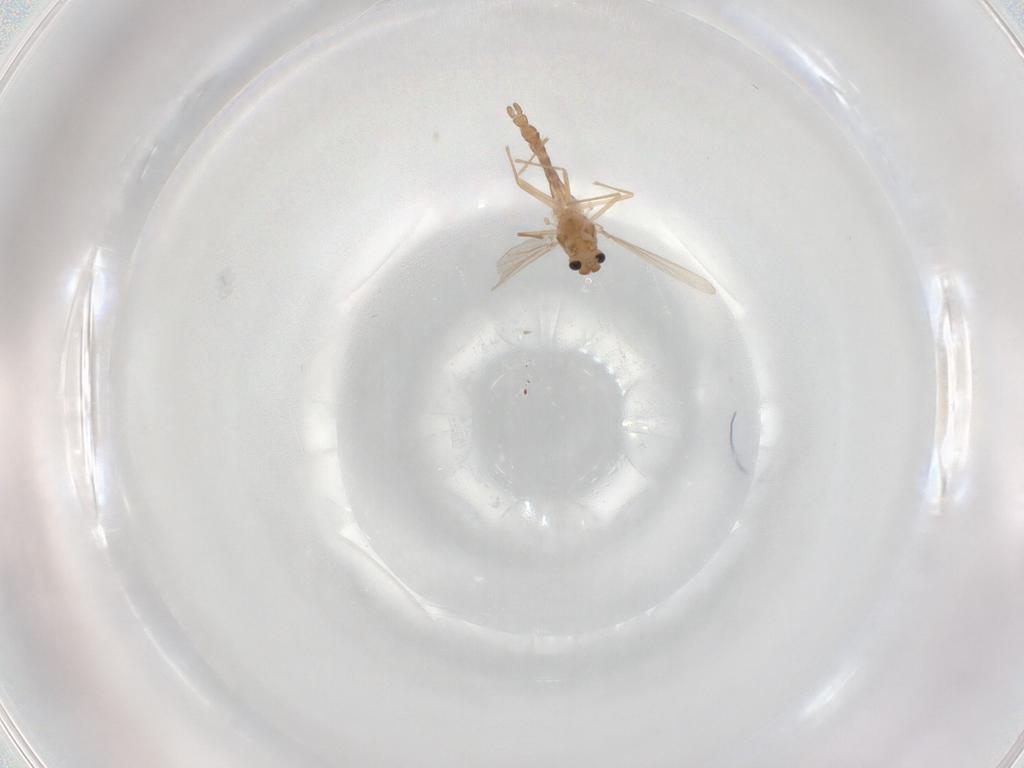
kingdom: Animalia
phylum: Arthropoda
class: Insecta
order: Diptera
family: Chironomidae
